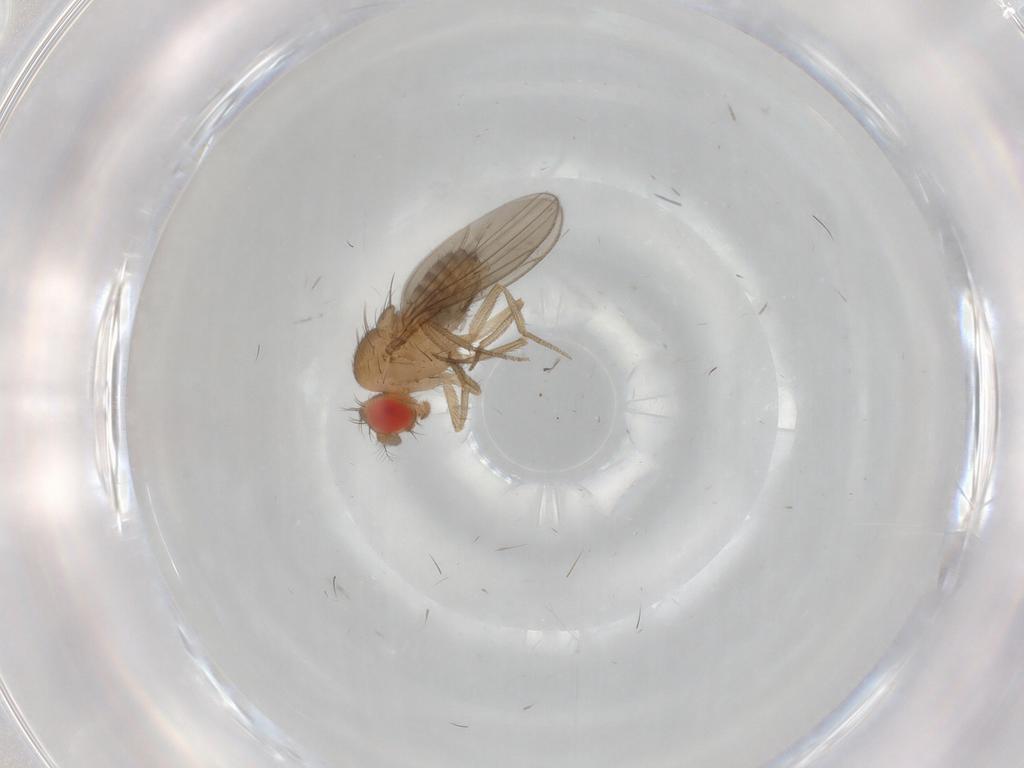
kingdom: Animalia
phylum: Arthropoda
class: Insecta
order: Diptera
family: Drosophilidae
